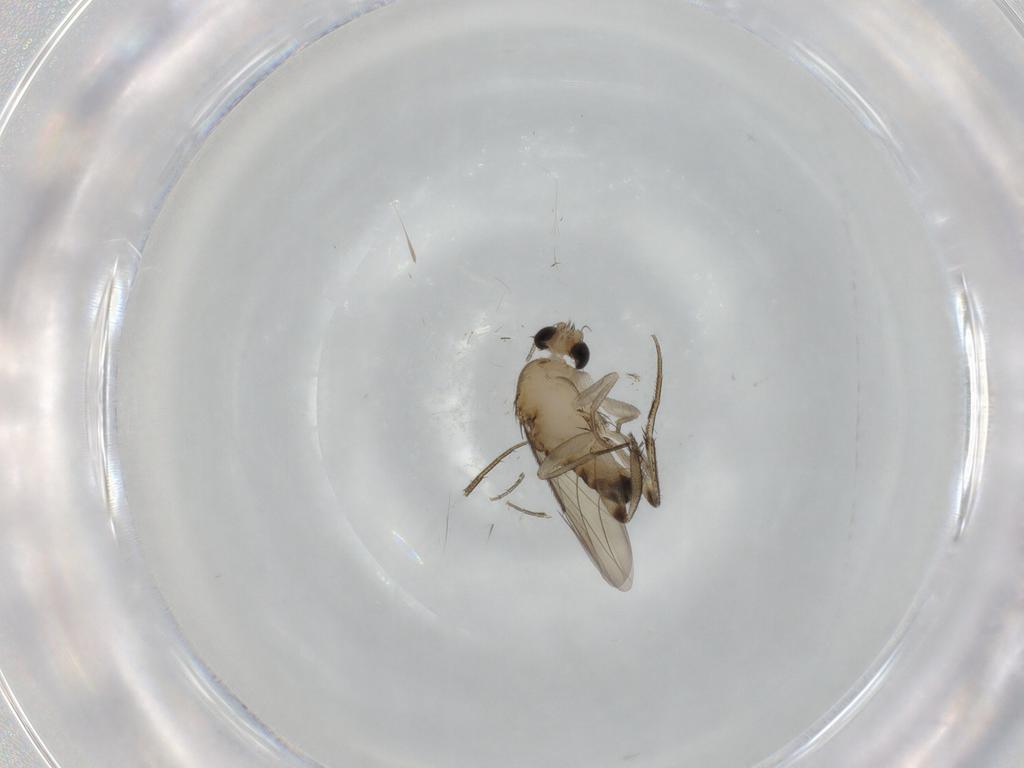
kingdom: Animalia
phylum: Arthropoda
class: Insecta
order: Diptera
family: Phoridae
